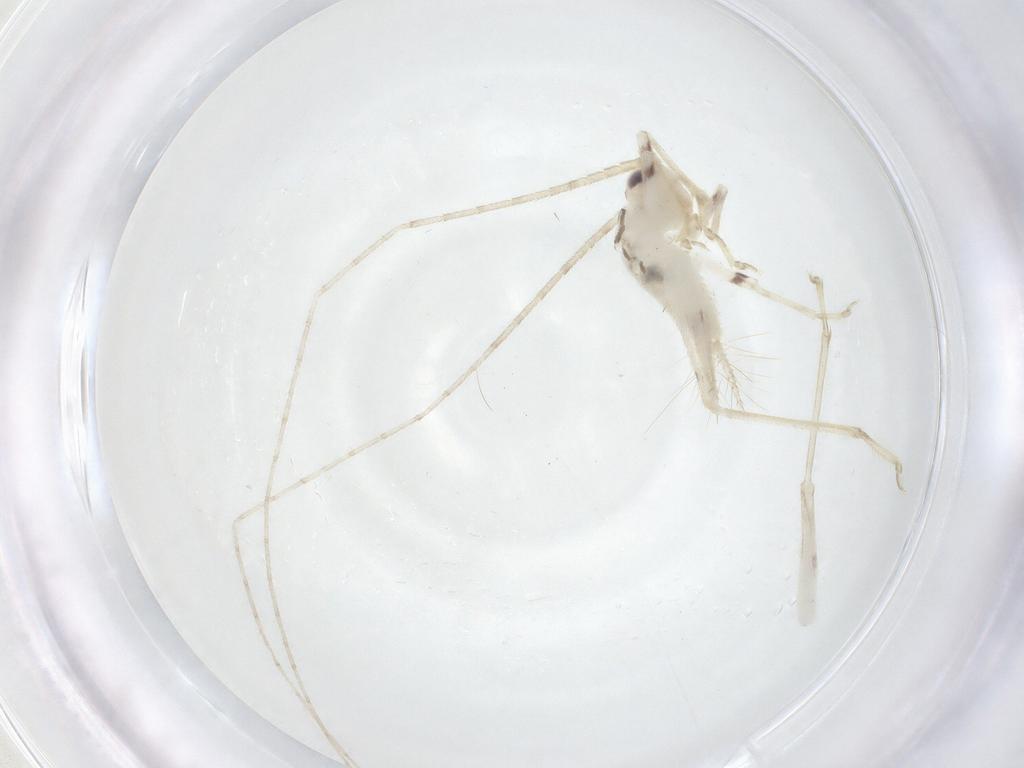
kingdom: Animalia
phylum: Arthropoda
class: Insecta
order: Orthoptera
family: Trigonidiidae
